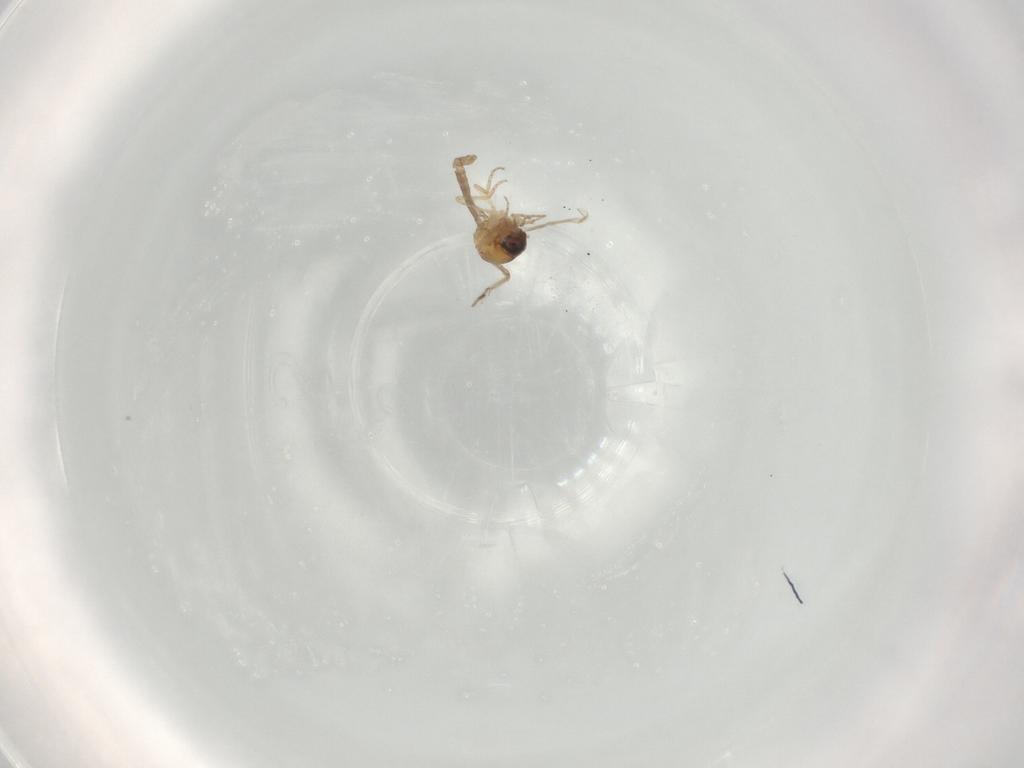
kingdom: Animalia
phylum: Arthropoda
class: Insecta
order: Diptera
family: Ceratopogonidae
